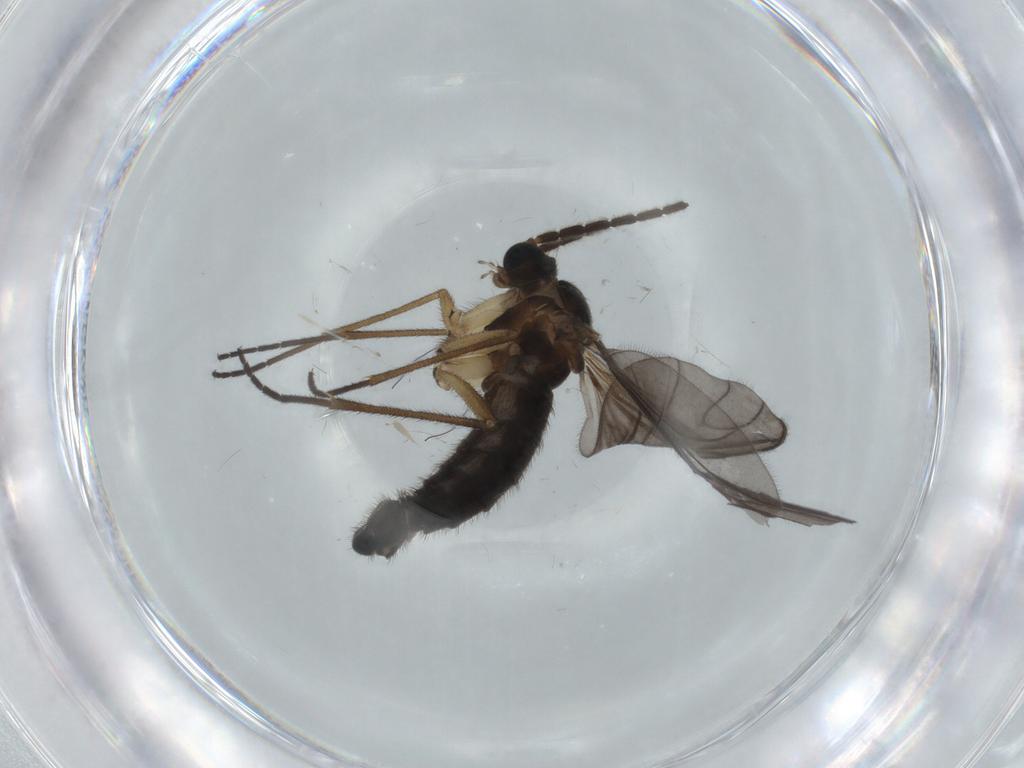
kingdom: Animalia
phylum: Arthropoda
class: Insecta
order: Diptera
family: Sciaridae
